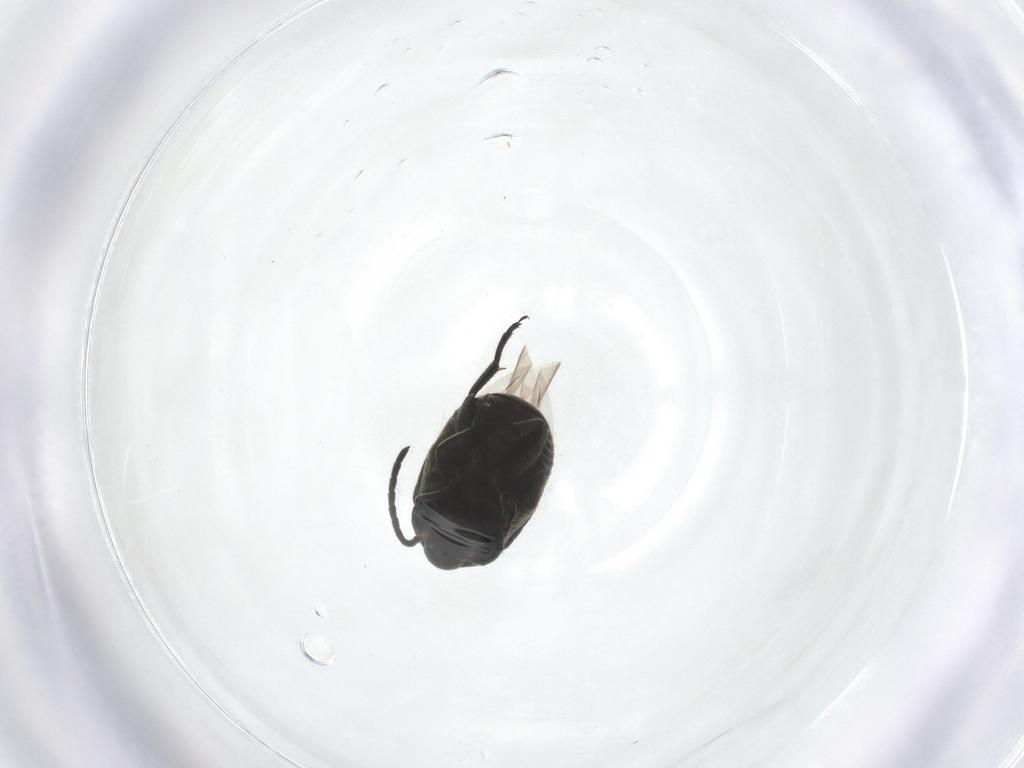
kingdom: Animalia
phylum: Arthropoda
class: Insecta
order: Coleoptera
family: Chrysomelidae
